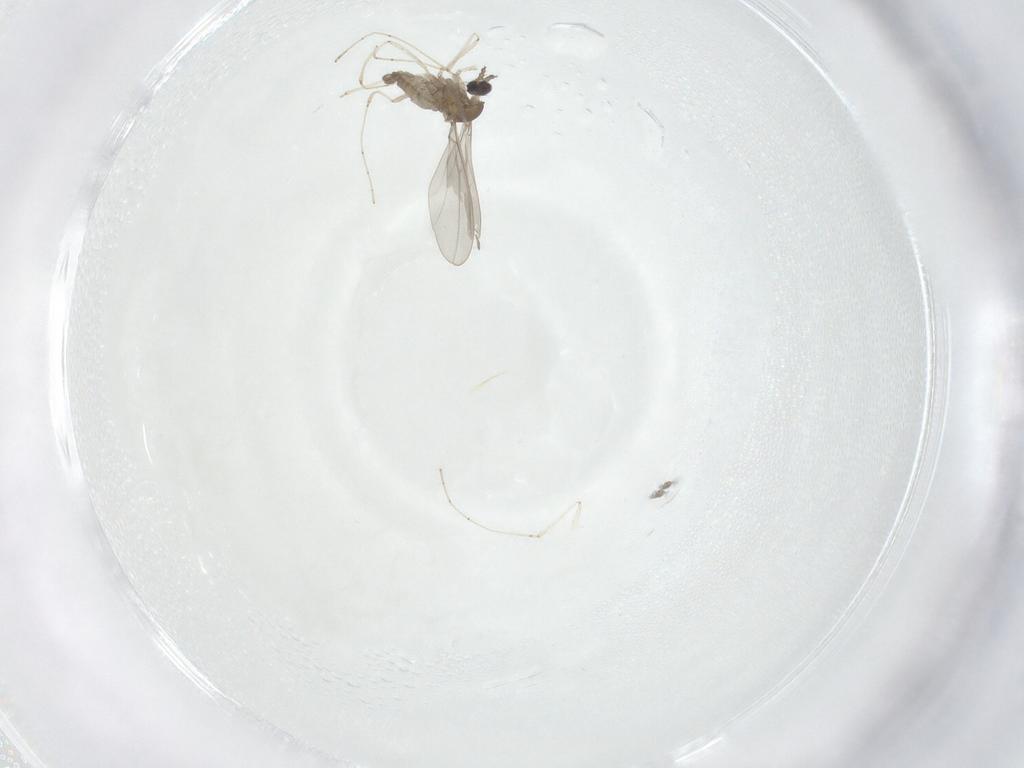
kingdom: Animalia
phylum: Arthropoda
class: Insecta
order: Diptera
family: Cecidomyiidae
